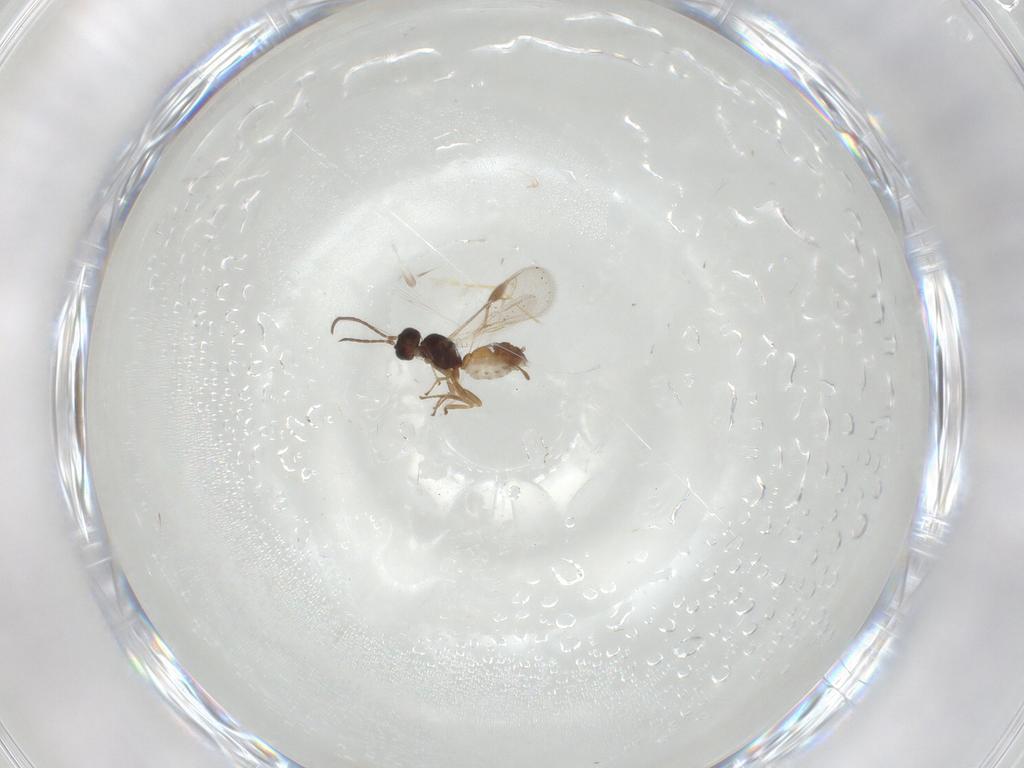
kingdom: Animalia
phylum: Arthropoda
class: Insecta
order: Hymenoptera
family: Braconidae
